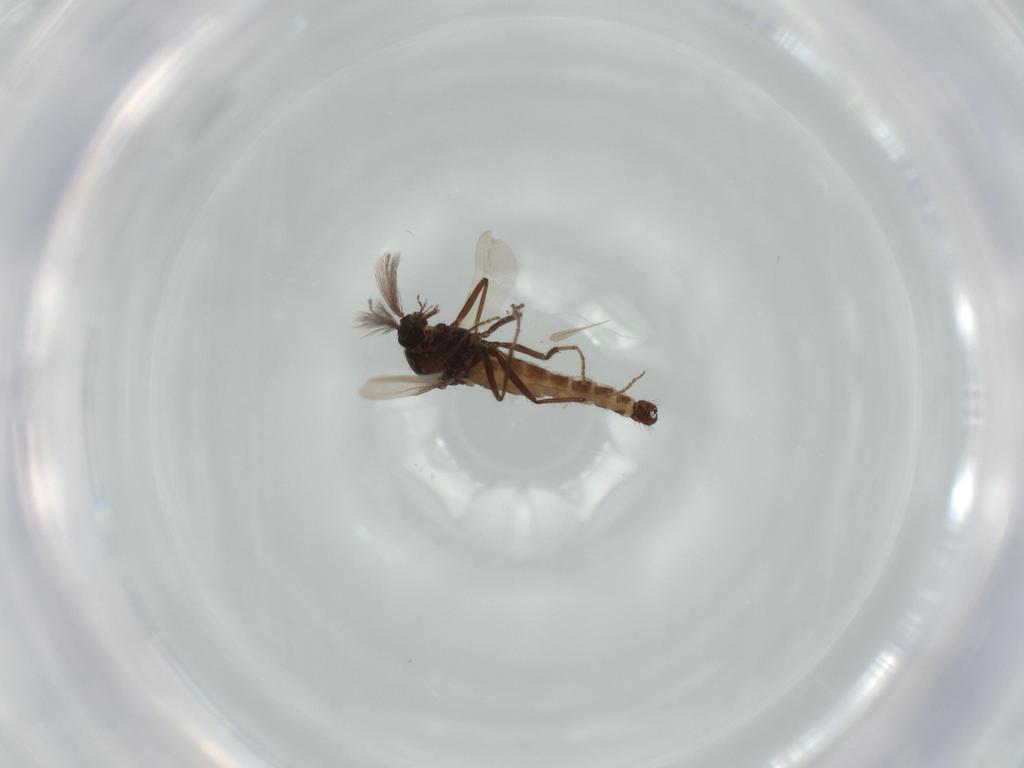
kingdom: Animalia
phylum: Arthropoda
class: Insecta
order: Diptera
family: Ceratopogonidae
